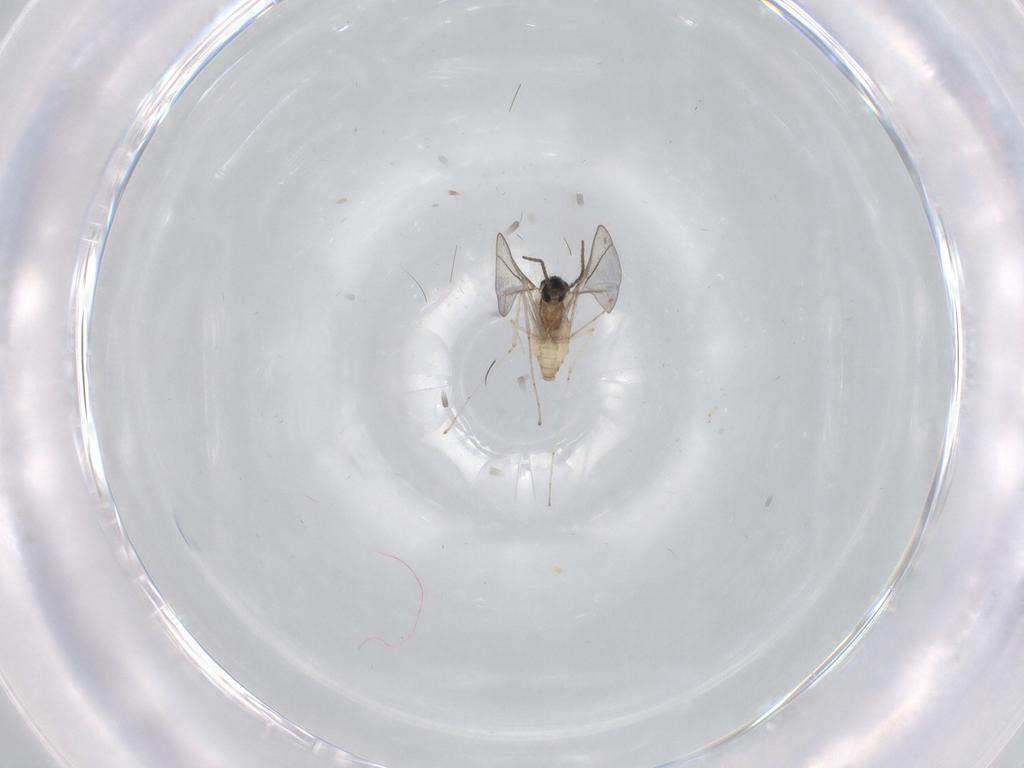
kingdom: Animalia
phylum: Arthropoda
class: Insecta
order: Diptera
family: Cecidomyiidae
